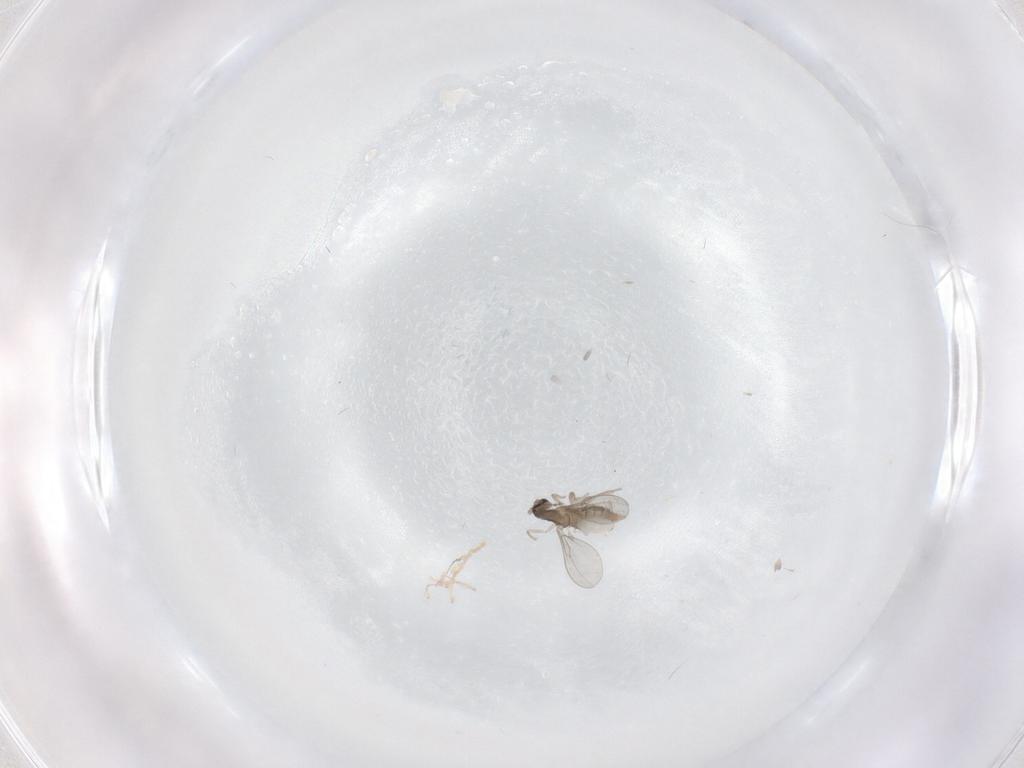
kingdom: Animalia
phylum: Arthropoda
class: Insecta
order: Diptera
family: Cecidomyiidae
